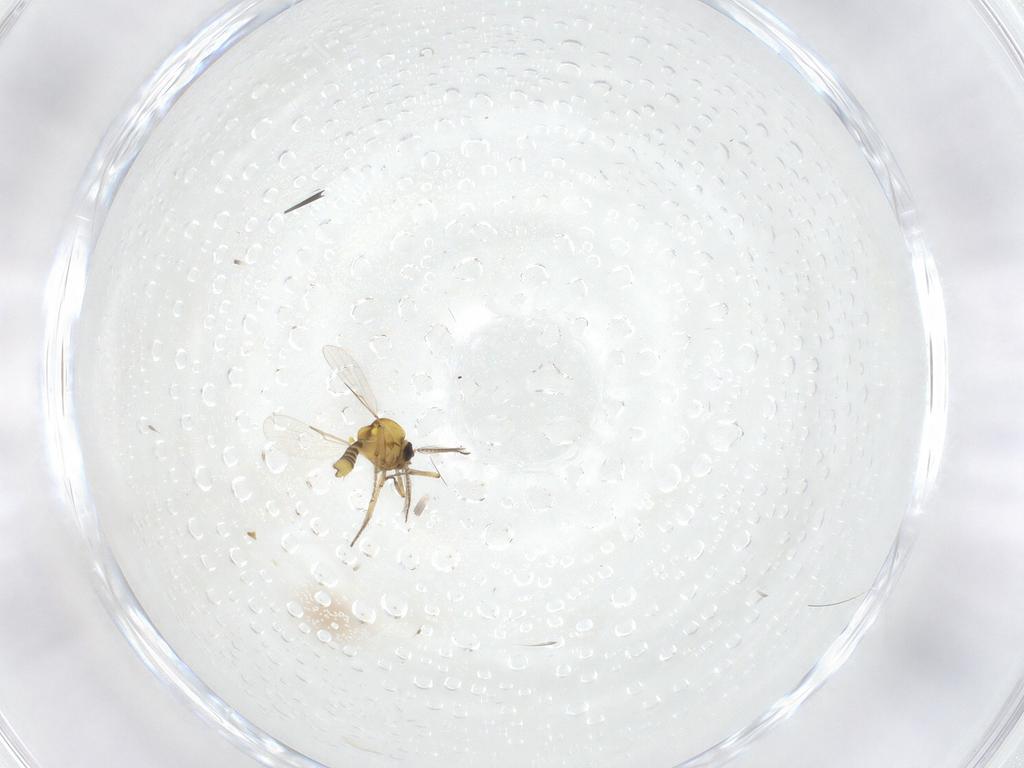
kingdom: Animalia
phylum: Arthropoda
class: Insecta
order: Diptera
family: Ceratopogonidae
